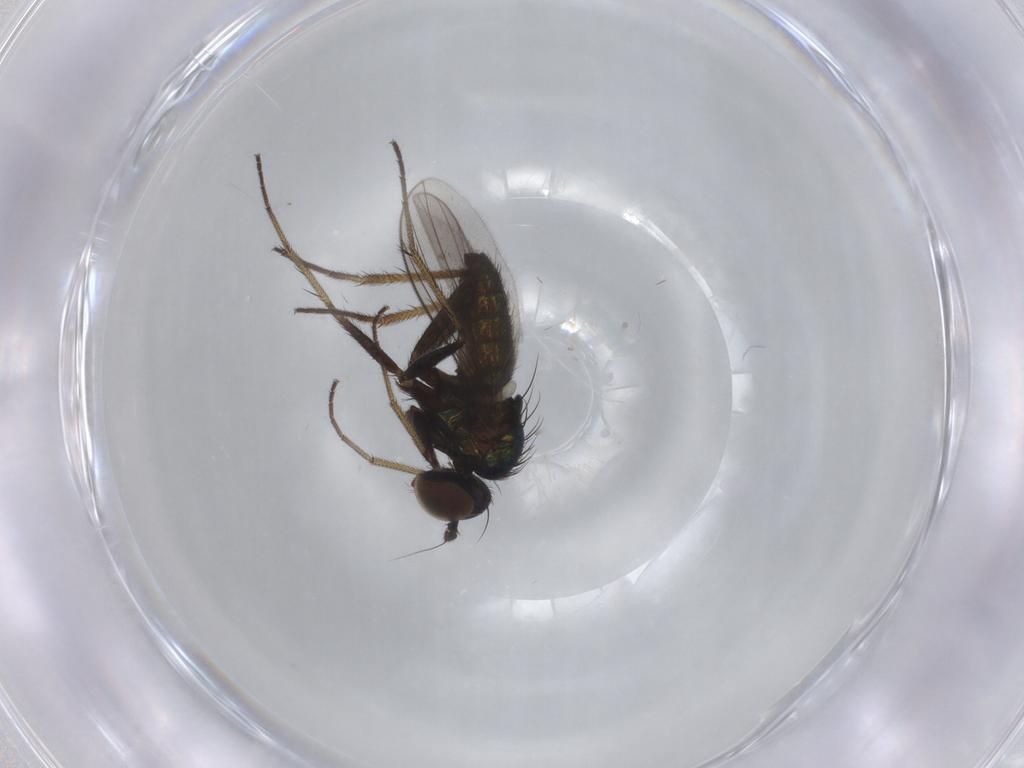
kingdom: Animalia
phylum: Arthropoda
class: Insecta
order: Diptera
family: Dolichopodidae
